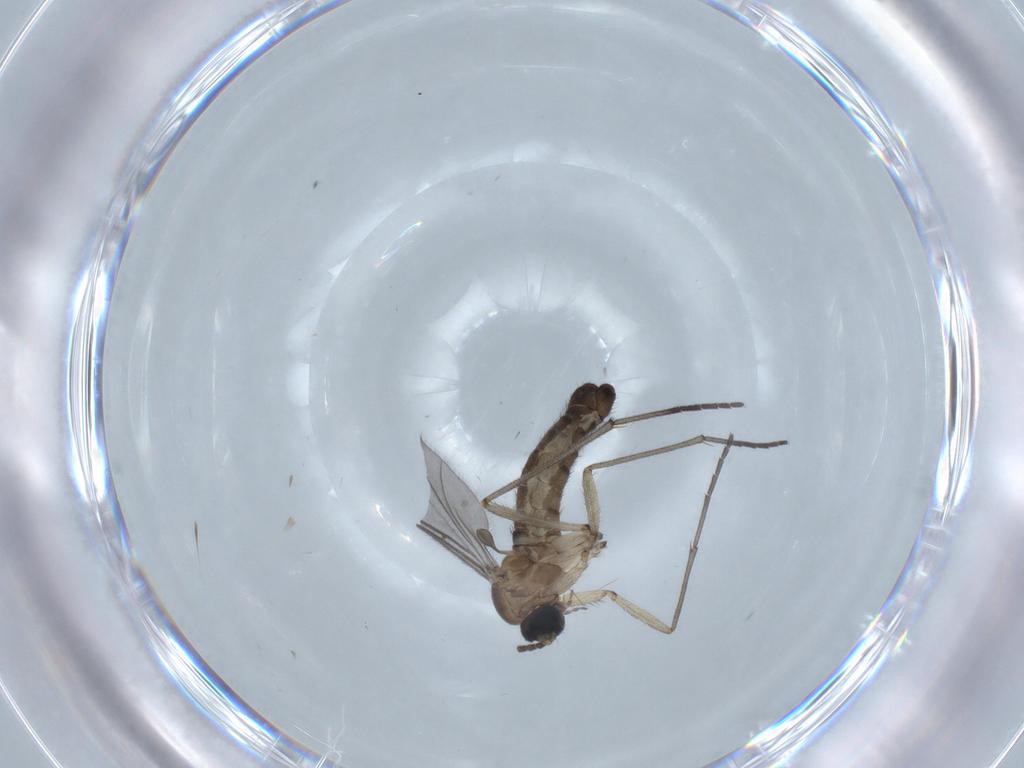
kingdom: Animalia
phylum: Arthropoda
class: Insecta
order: Diptera
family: Sciaridae
